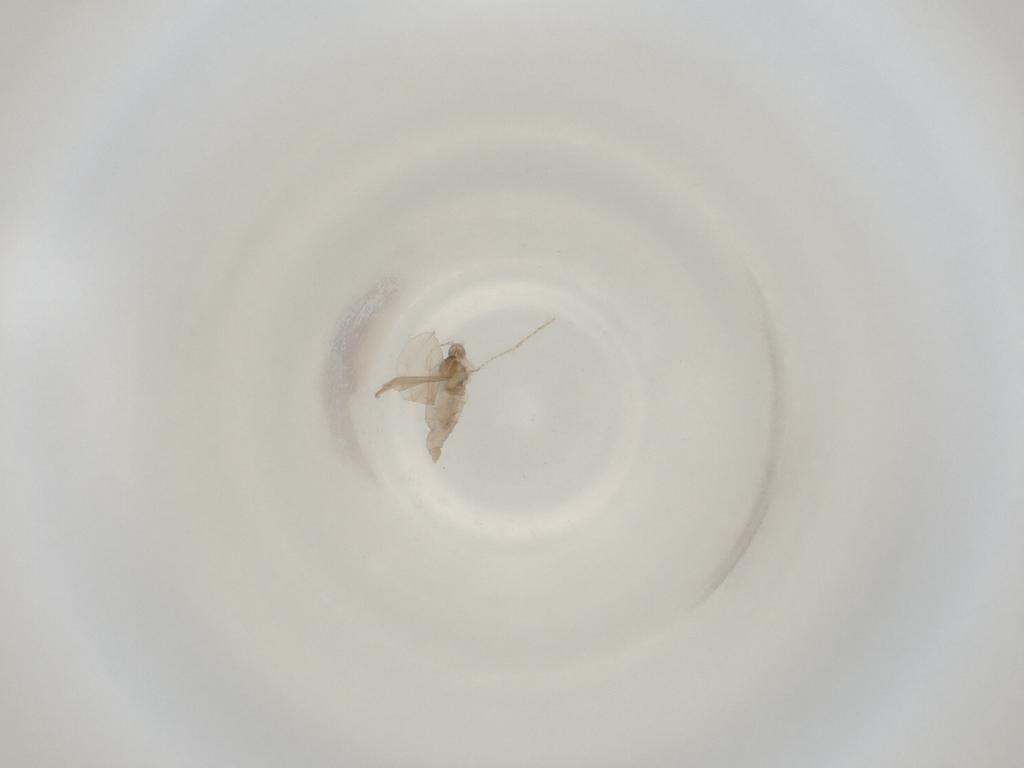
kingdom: Animalia
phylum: Arthropoda
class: Insecta
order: Diptera
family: Cecidomyiidae
